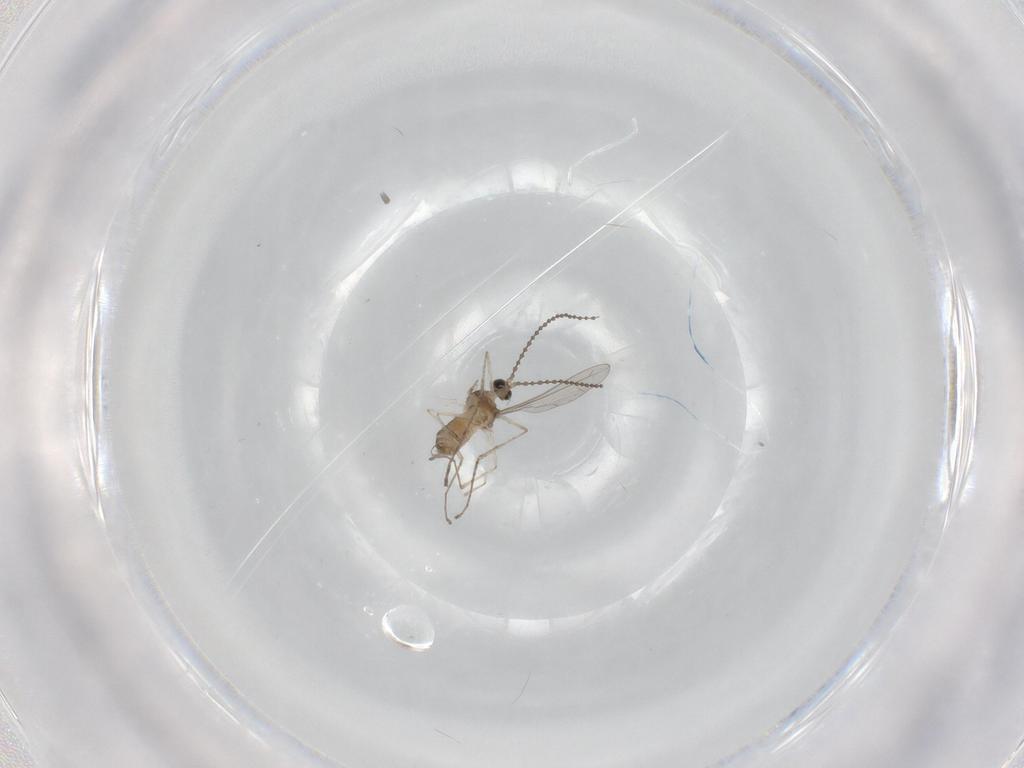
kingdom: Animalia
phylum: Arthropoda
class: Insecta
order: Diptera
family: Cecidomyiidae
